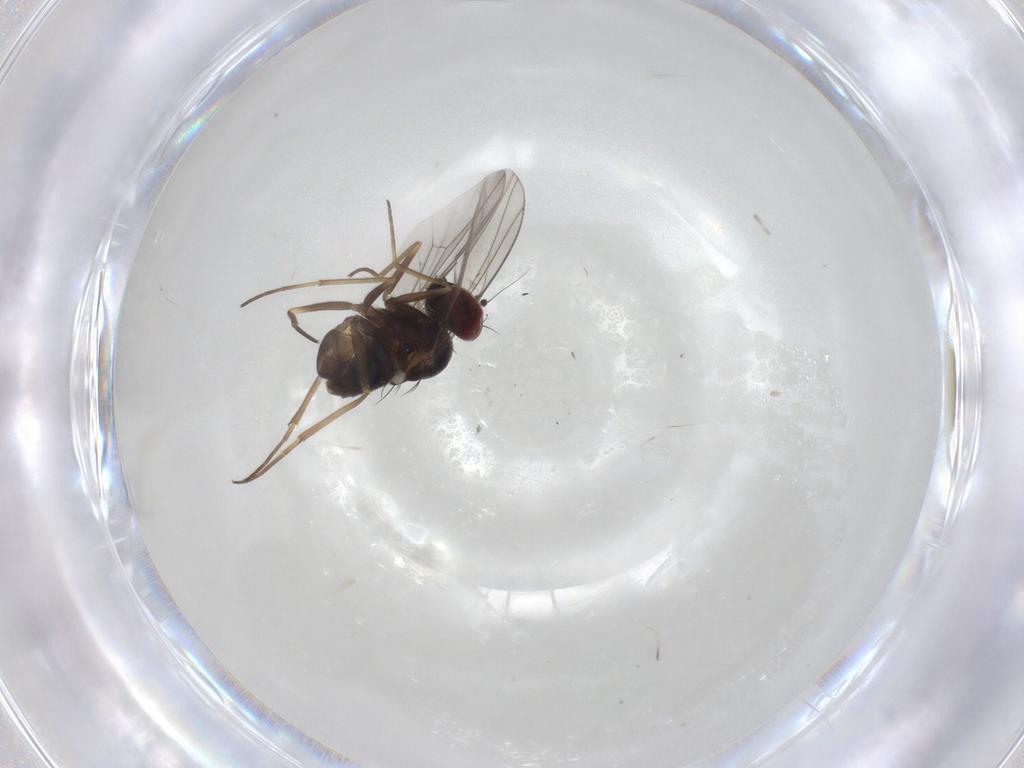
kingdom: Animalia
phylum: Arthropoda
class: Insecta
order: Diptera
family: Dolichopodidae
